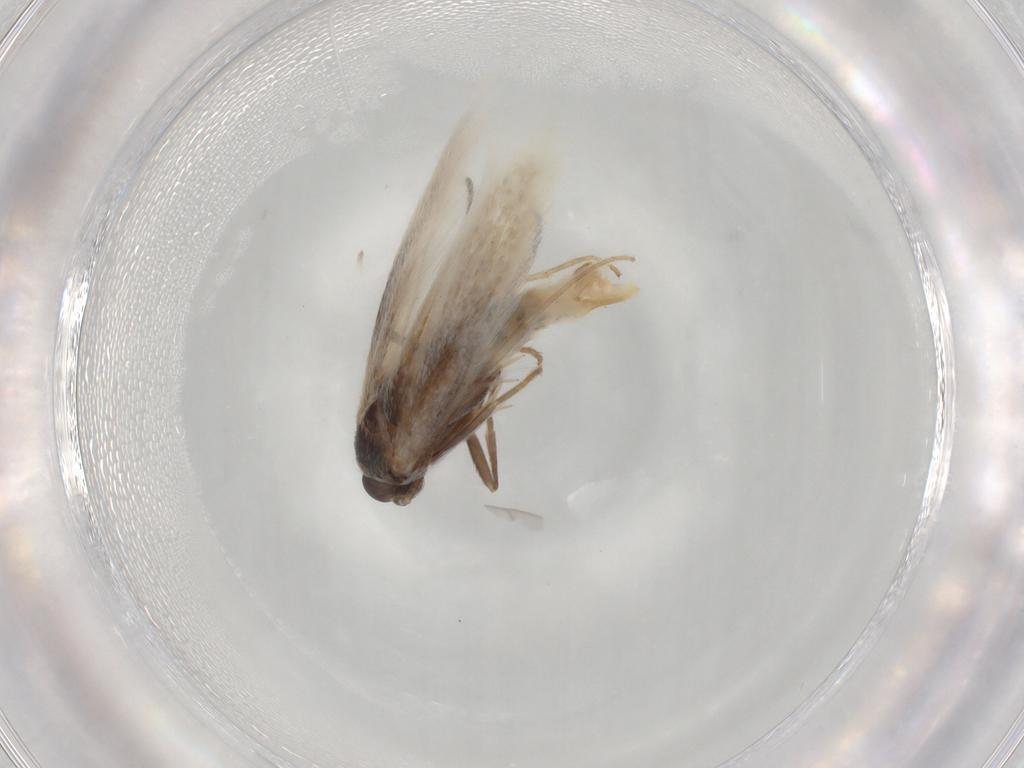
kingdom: Animalia
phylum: Arthropoda
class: Insecta
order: Lepidoptera
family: Elachistidae
